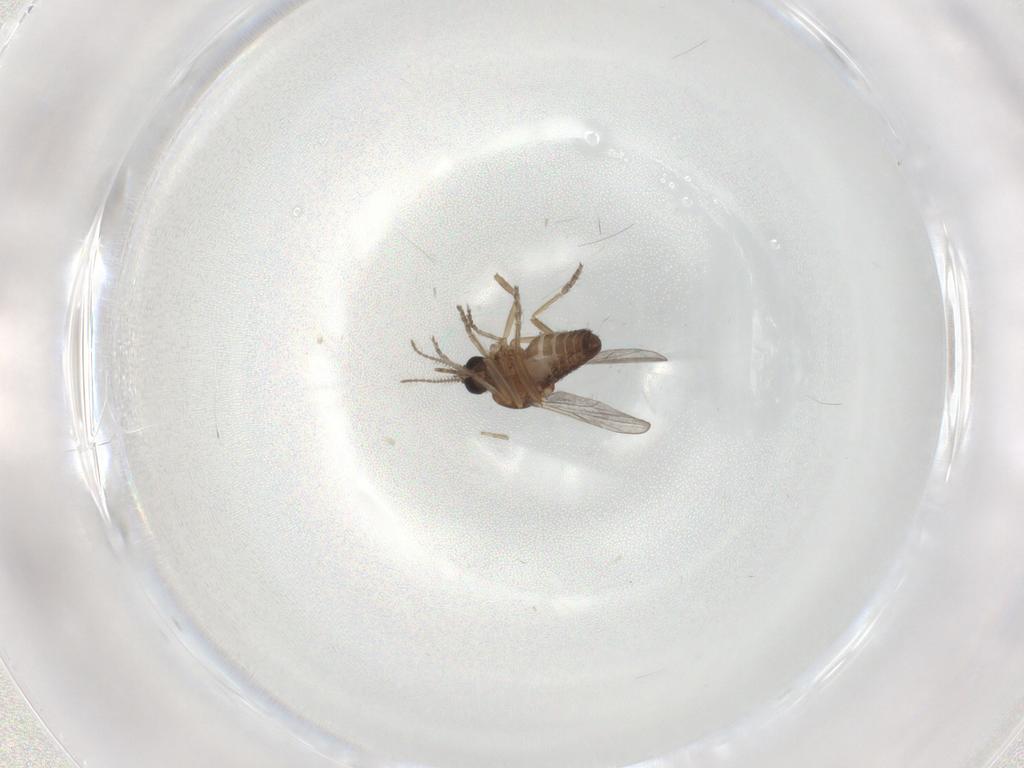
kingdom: Animalia
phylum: Arthropoda
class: Insecta
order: Diptera
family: Ceratopogonidae
